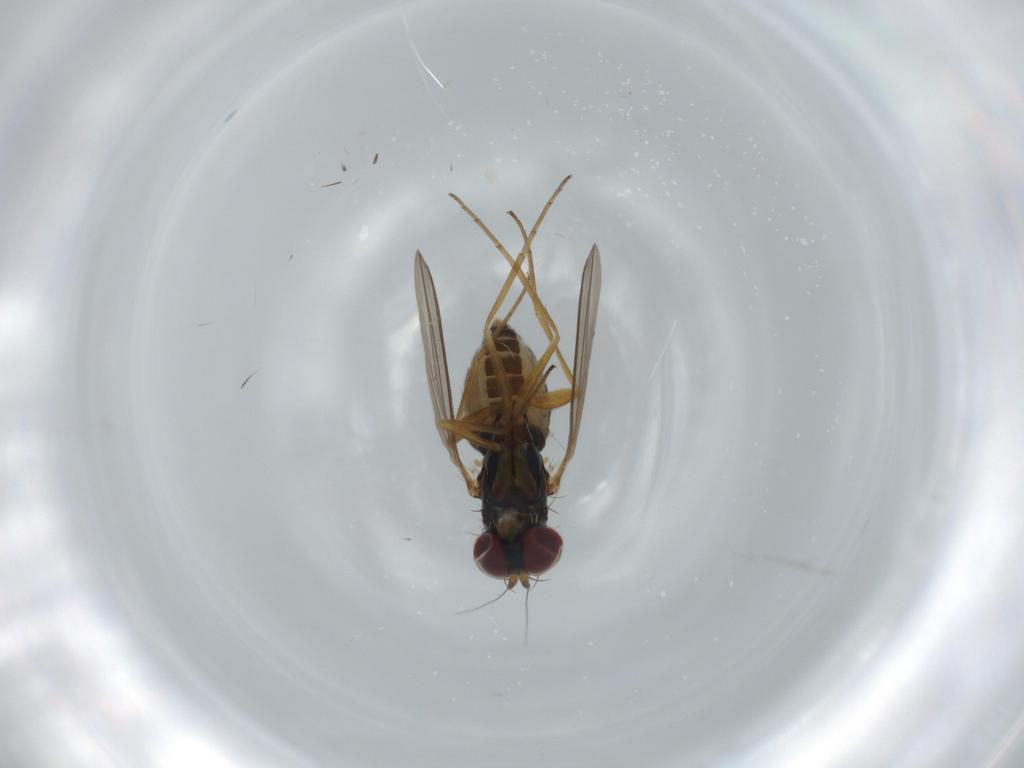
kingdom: Animalia
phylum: Arthropoda
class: Insecta
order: Diptera
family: Dolichopodidae
